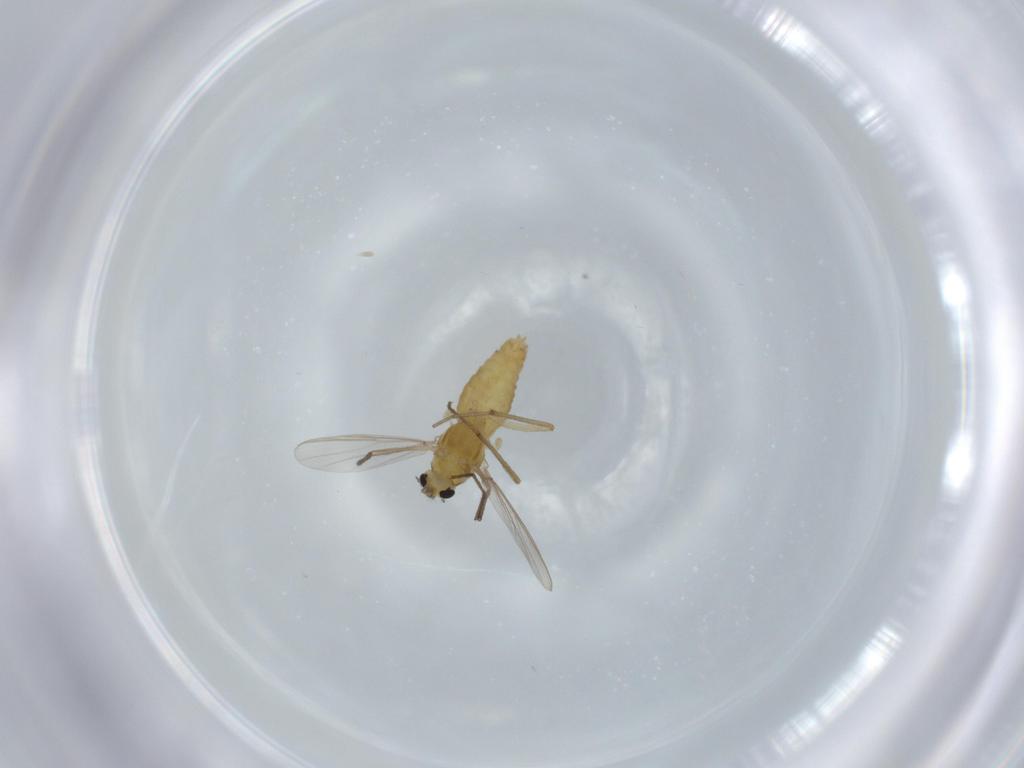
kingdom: Animalia
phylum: Arthropoda
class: Insecta
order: Diptera
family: Chironomidae
